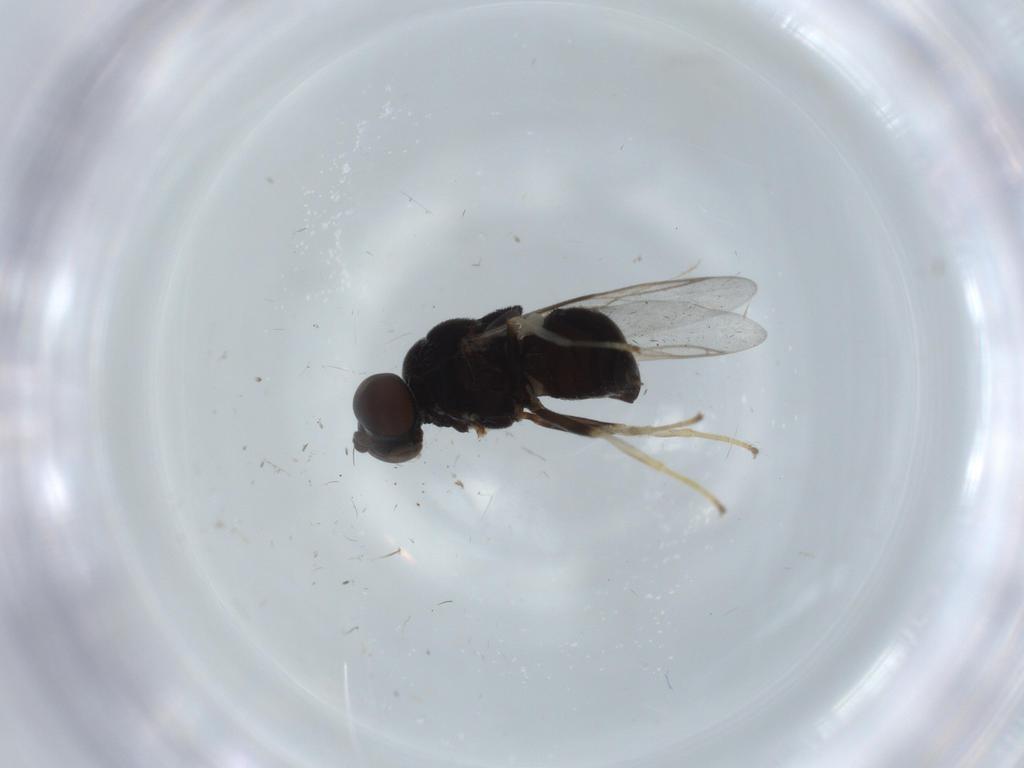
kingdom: Animalia
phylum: Arthropoda
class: Insecta
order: Diptera
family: Stratiomyidae
